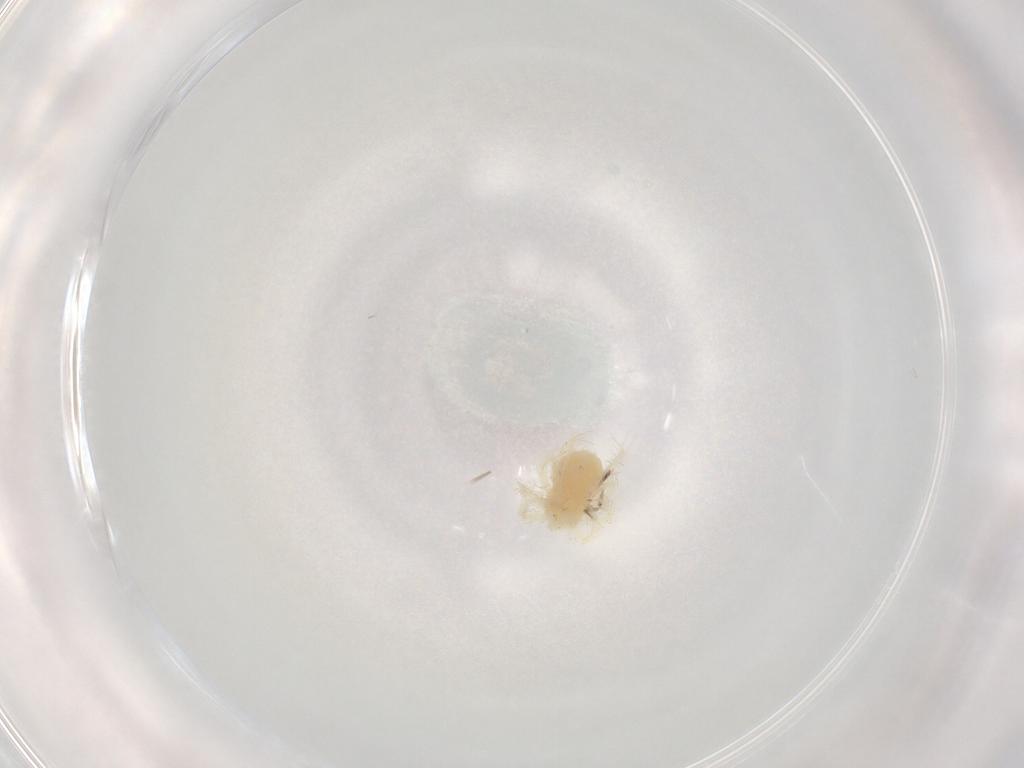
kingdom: Animalia
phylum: Arthropoda
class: Arachnida
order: Trombidiformes
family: Anystidae
